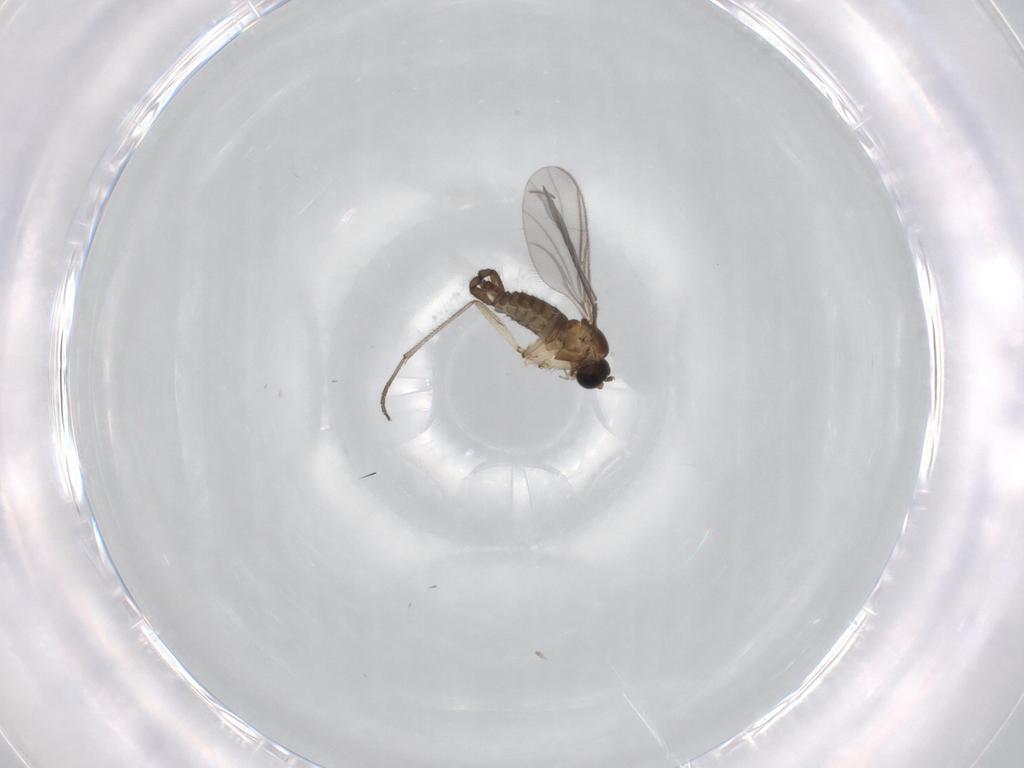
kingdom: Animalia
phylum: Arthropoda
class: Insecta
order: Diptera
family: Sciaridae
